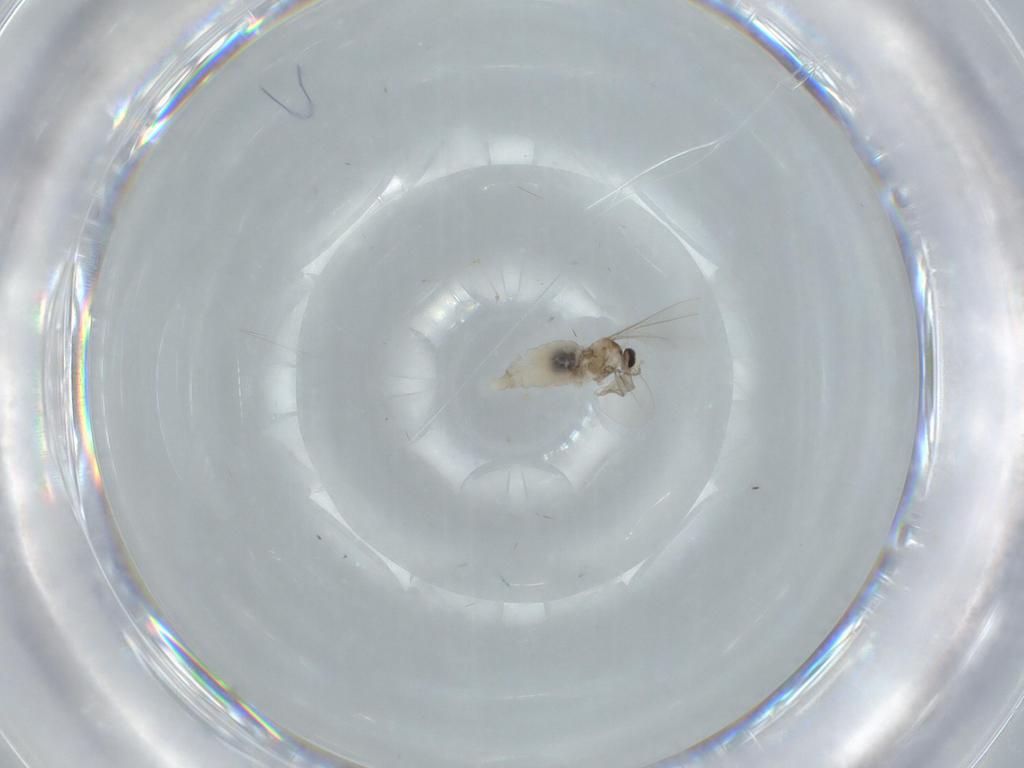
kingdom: Animalia
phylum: Arthropoda
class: Insecta
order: Diptera
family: Cecidomyiidae
